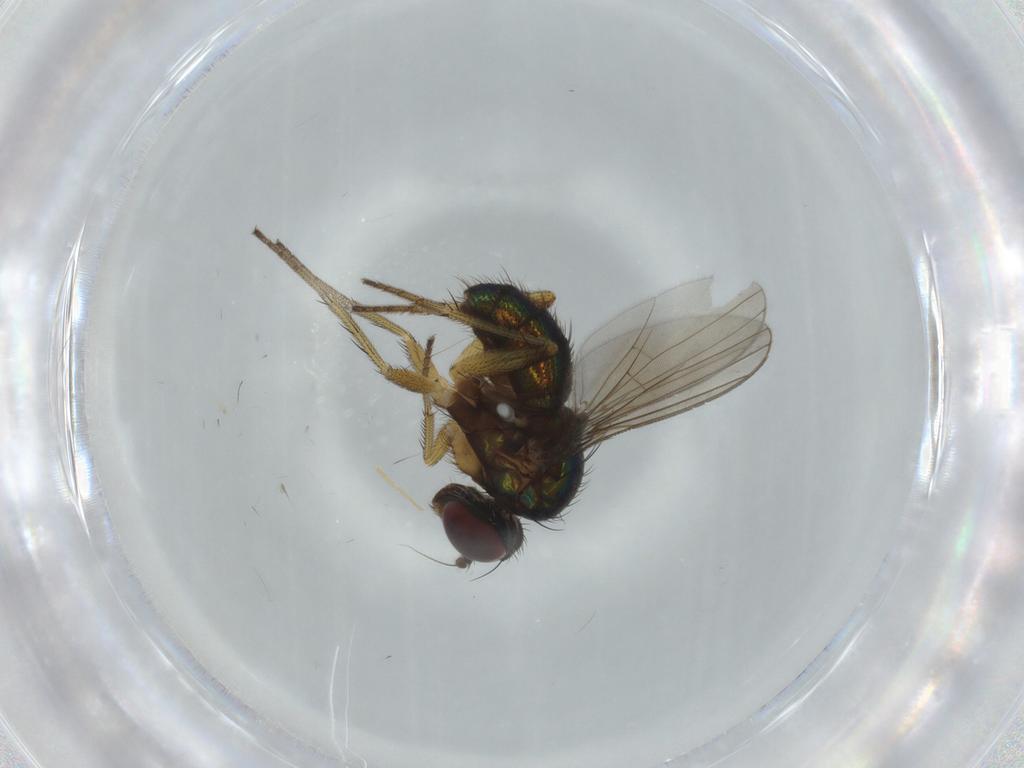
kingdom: Animalia
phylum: Arthropoda
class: Insecta
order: Diptera
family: Dolichopodidae
